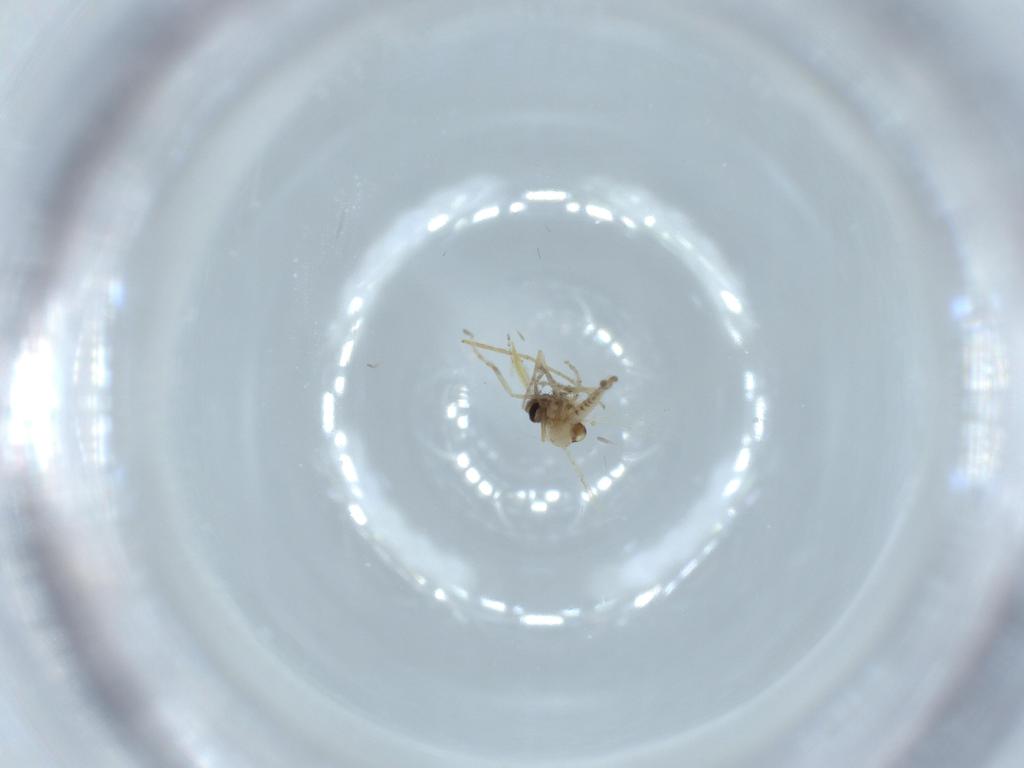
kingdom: Animalia
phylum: Arthropoda
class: Insecta
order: Diptera
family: Ceratopogonidae
